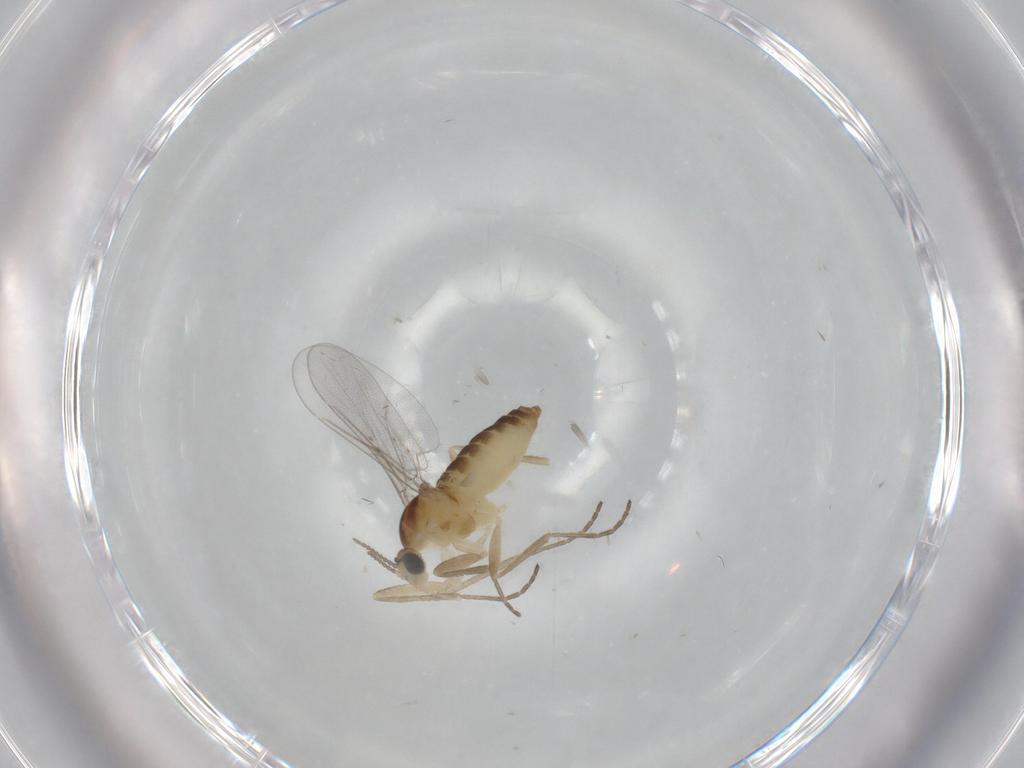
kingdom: Animalia
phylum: Arthropoda
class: Insecta
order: Diptera
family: Cecidomyiidae
